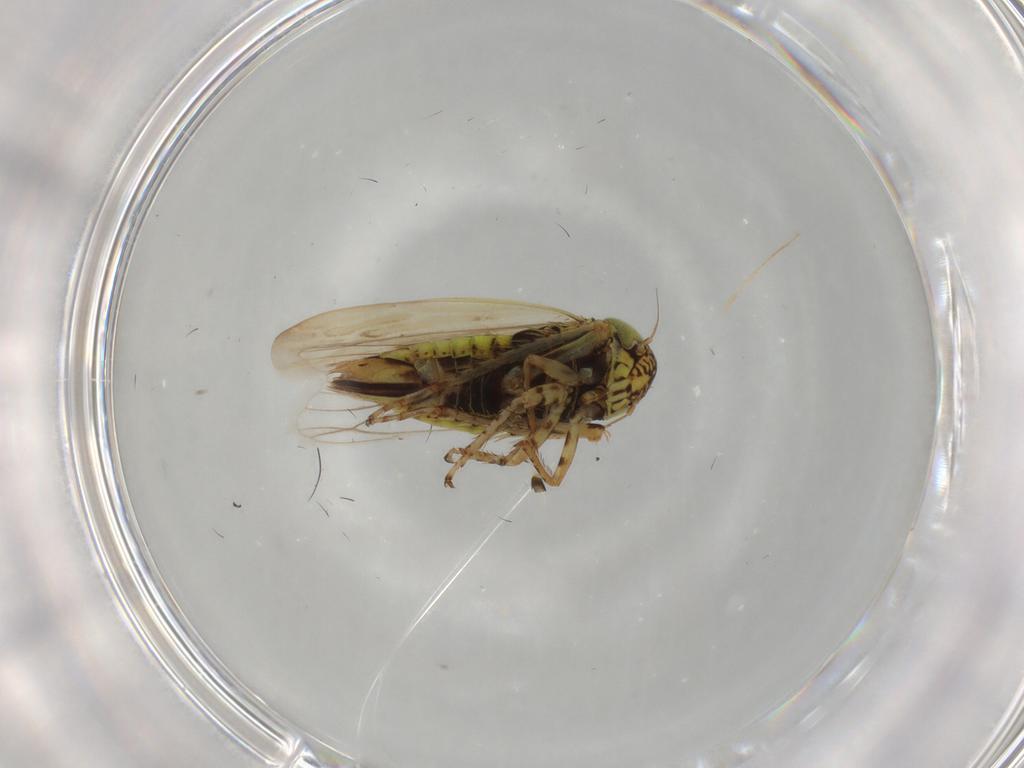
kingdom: Animalia
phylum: Arthropoda
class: Insecta
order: Hemiptera
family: Cicadellidae
